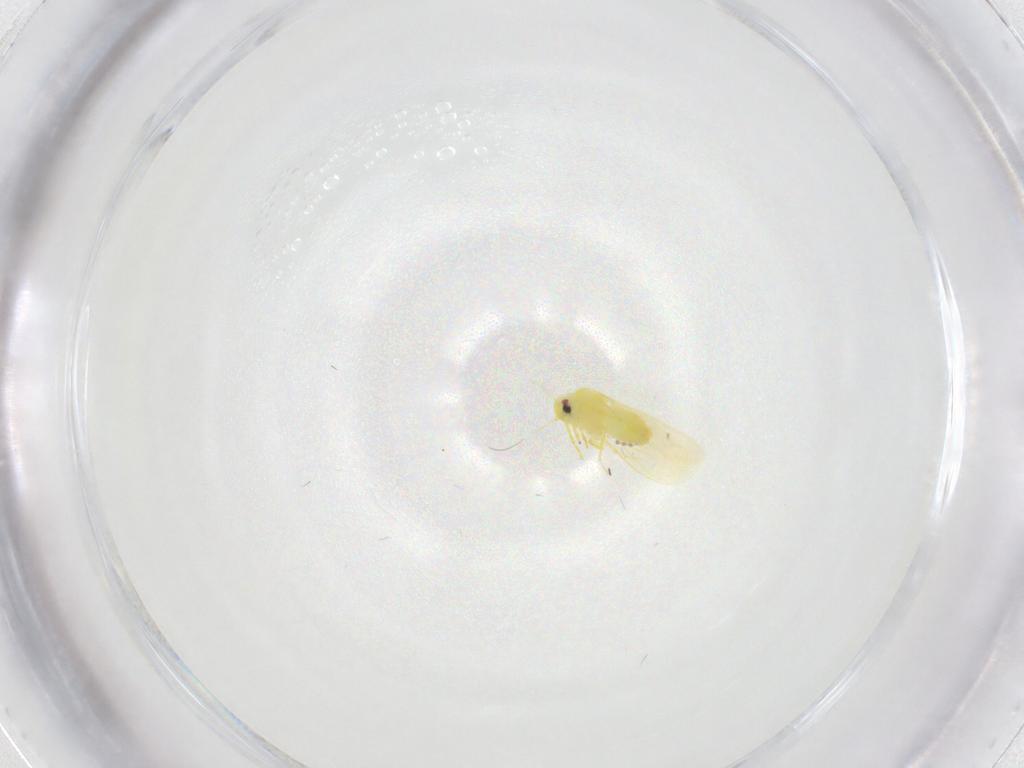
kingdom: Animalia
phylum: Arthropoda
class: Insecta
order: Hemiptera
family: Aleyrodidae
